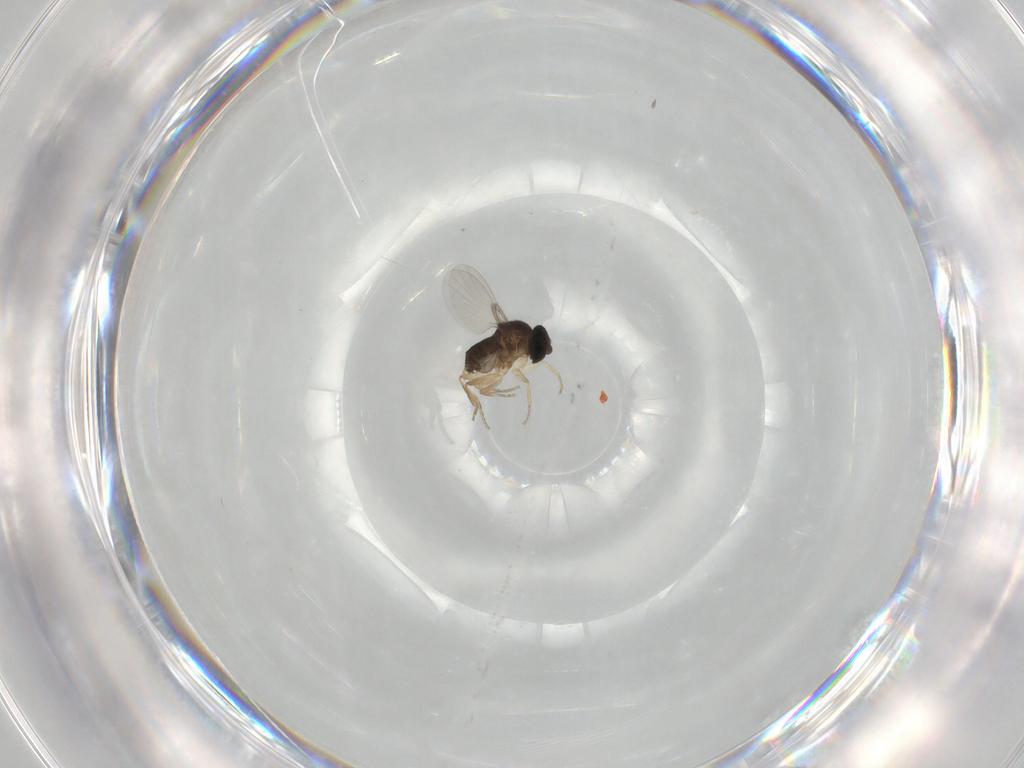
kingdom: Animalia
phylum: Arthropoda
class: Insecta
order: Diptera
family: Phoridae
